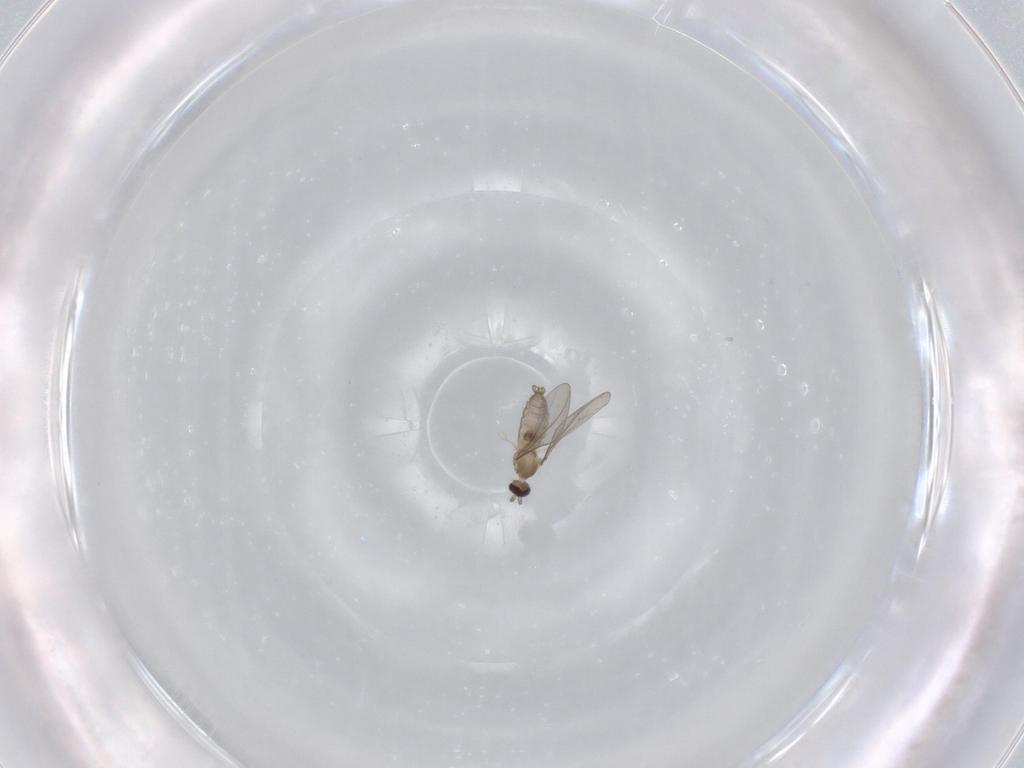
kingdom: Animalia
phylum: Arthropoda
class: Insecta
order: Diptera
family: Cecidomyiidae
